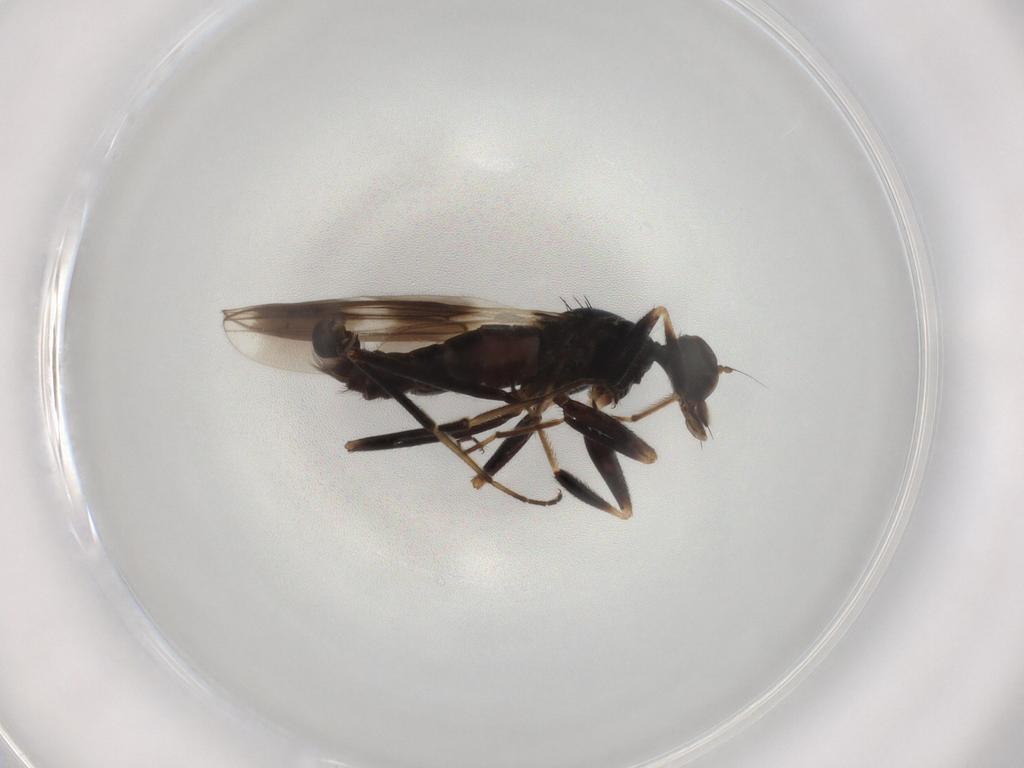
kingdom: Animalia
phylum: Arthropoda
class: Insecta
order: Diptera
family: Hybotidae
